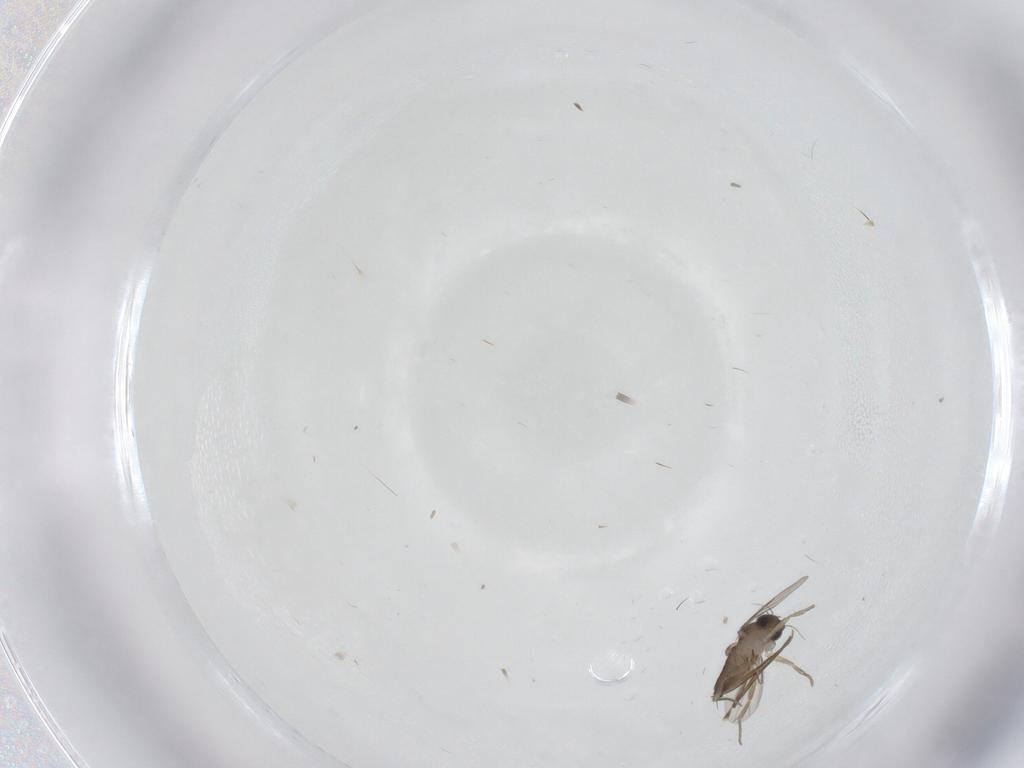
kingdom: Animalia
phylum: Arthropoda
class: Insecta
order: Diptera
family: Phoridae
